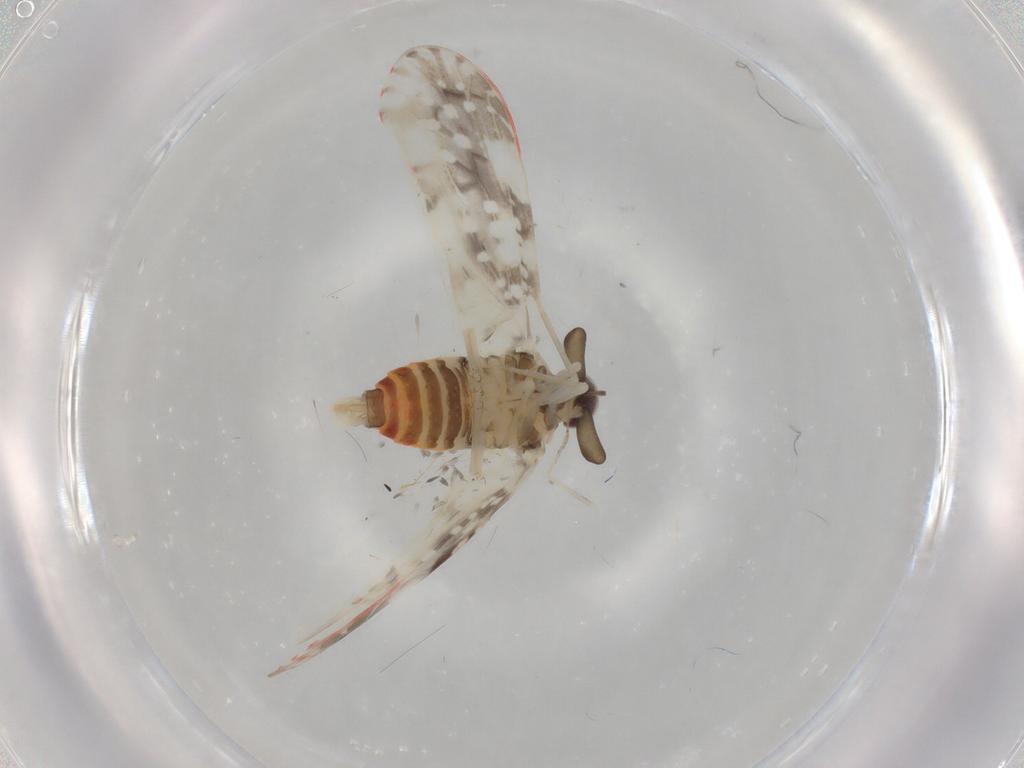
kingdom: Animalia
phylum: Arthropoda
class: Insecta
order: Hemiptera
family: Derbidae
